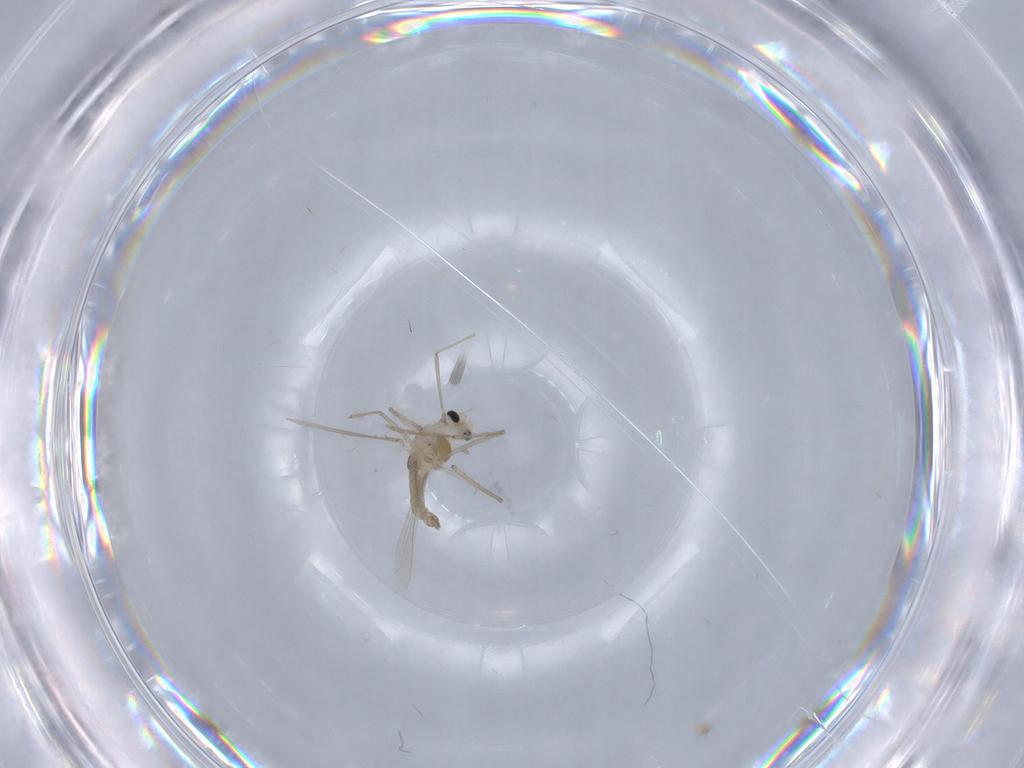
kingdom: Animalia
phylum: Arthropoda
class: Insecta
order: Diptera
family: Chironomidae
